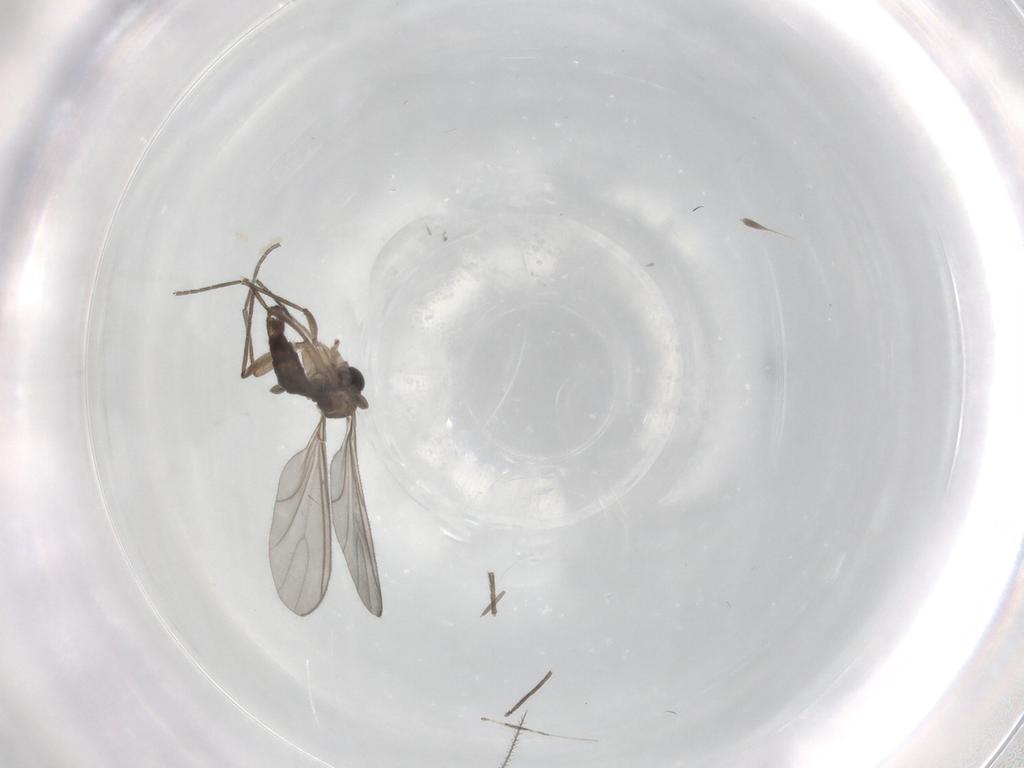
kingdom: Animalia
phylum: Arthropoda
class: Insecta
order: Diptera
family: Sciaridae
